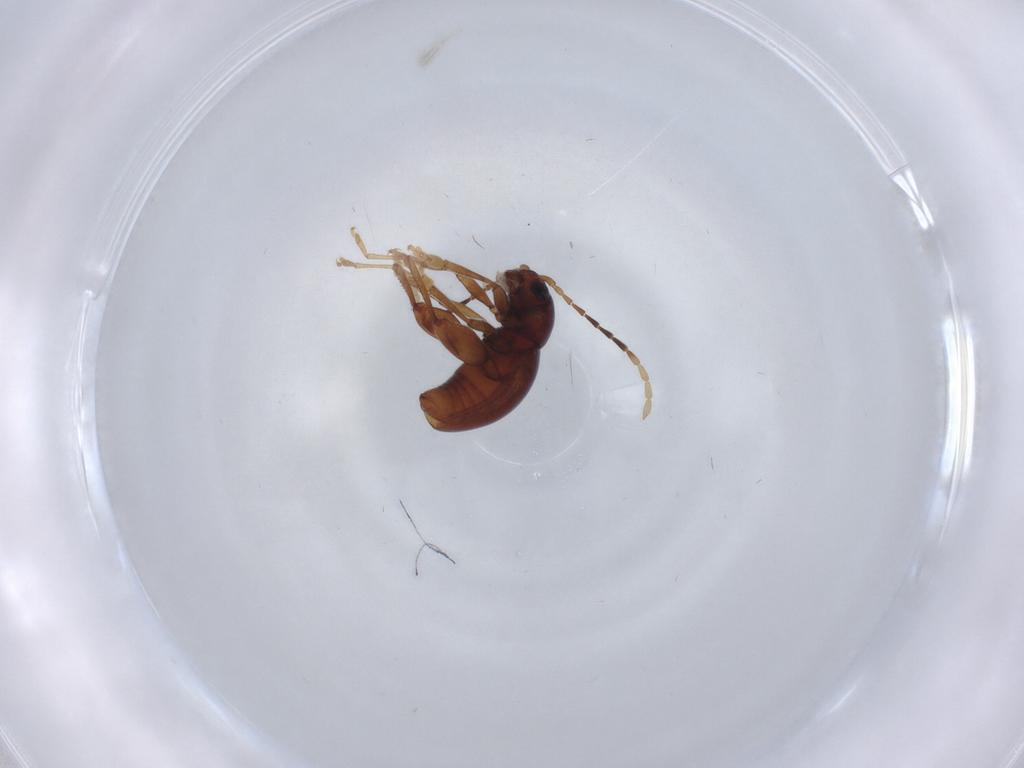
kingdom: Animalia
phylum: Arthropoda
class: Insecta
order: Coleoptera
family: Chrysomelidae
